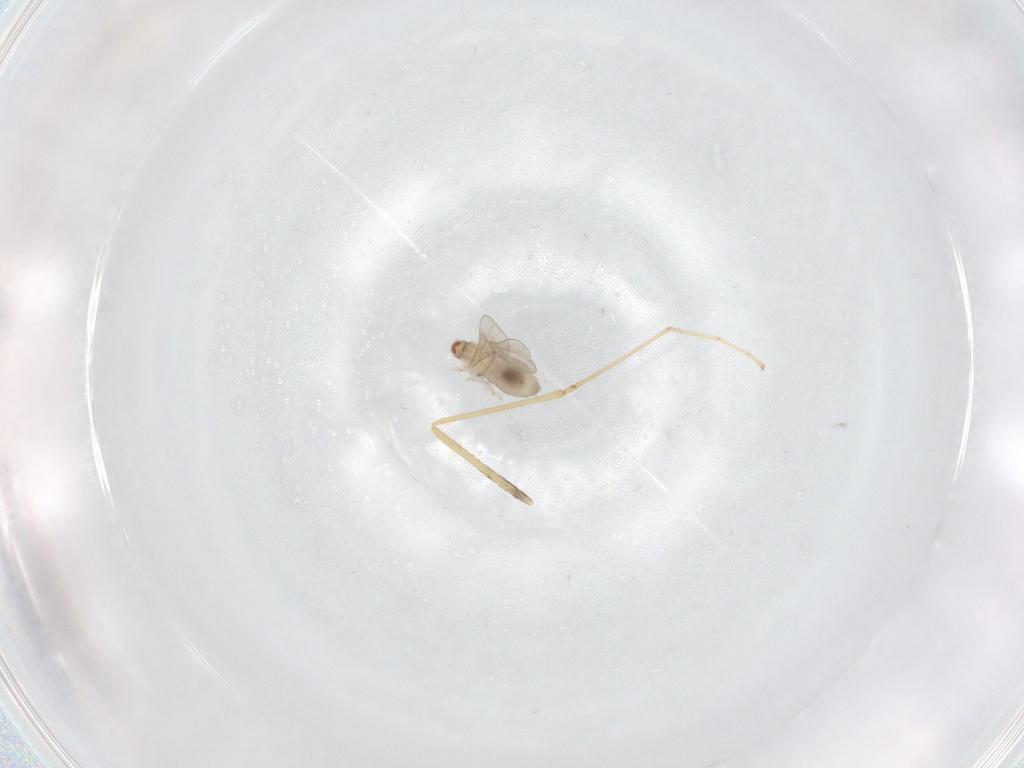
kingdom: Animalia
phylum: Arthropoda
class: Insecta
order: Diptera
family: Cecidomyiidae
